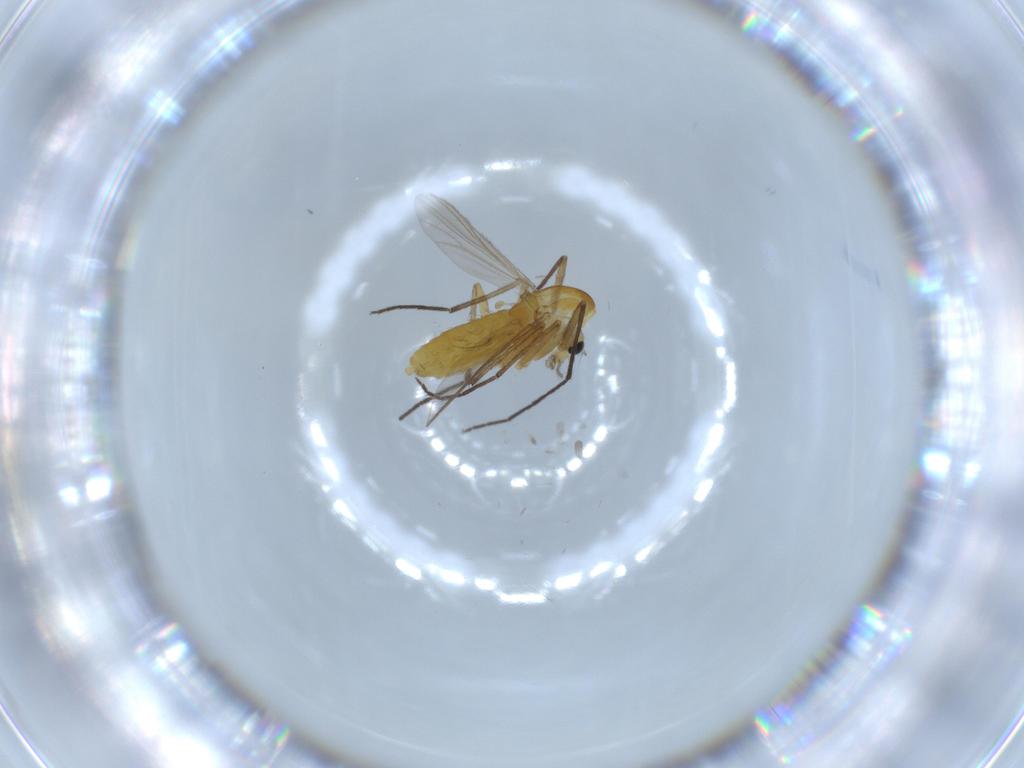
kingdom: Animalia
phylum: Arthropoda
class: Insecta
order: Diptera
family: Chironomidae
